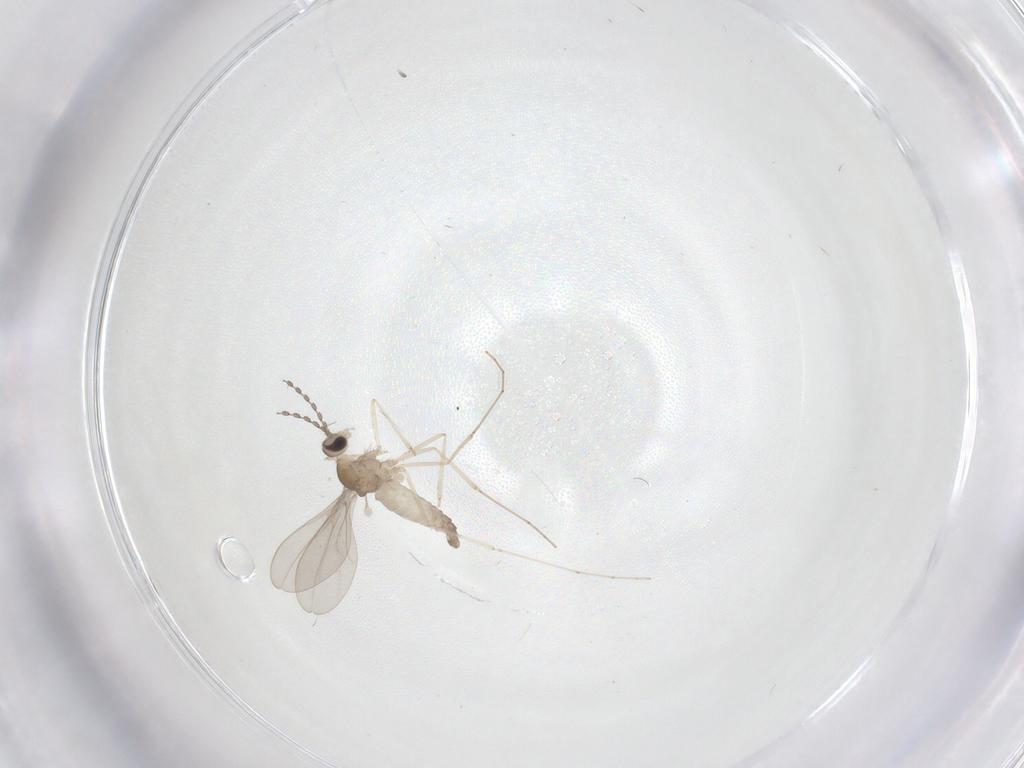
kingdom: Animalia
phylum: Arthropoda
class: Insecta
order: Diptera
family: Cecidomyiidae
